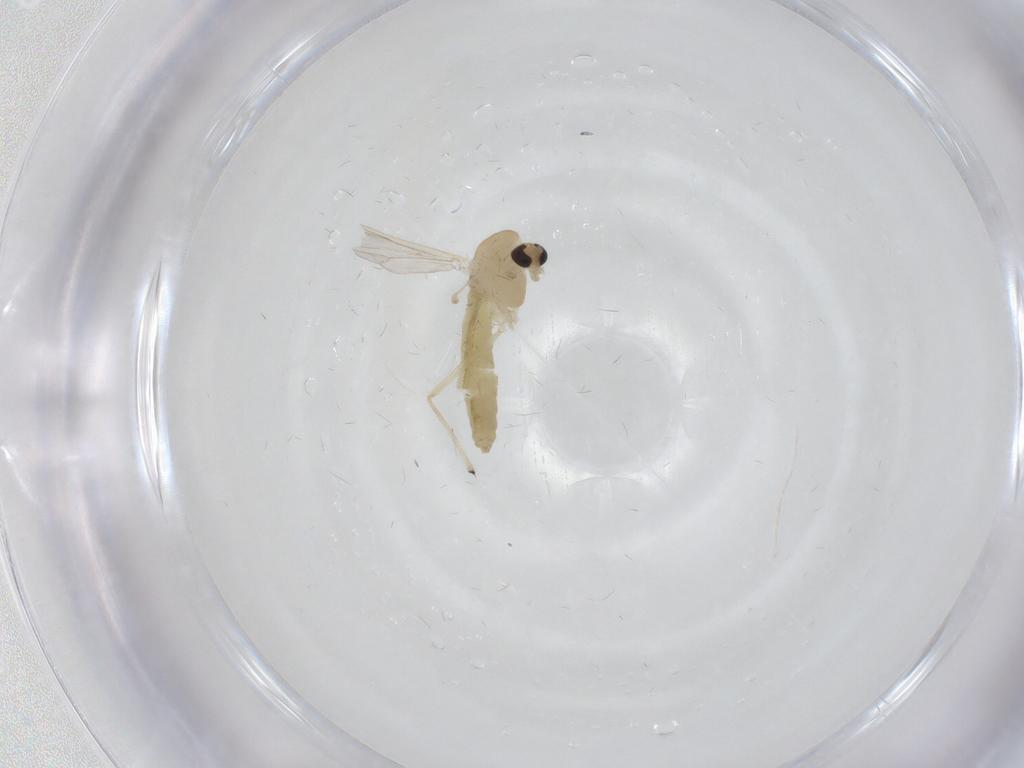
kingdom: Animalia
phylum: Arthropoda
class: Insecta
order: Diptera
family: Chironomidae
